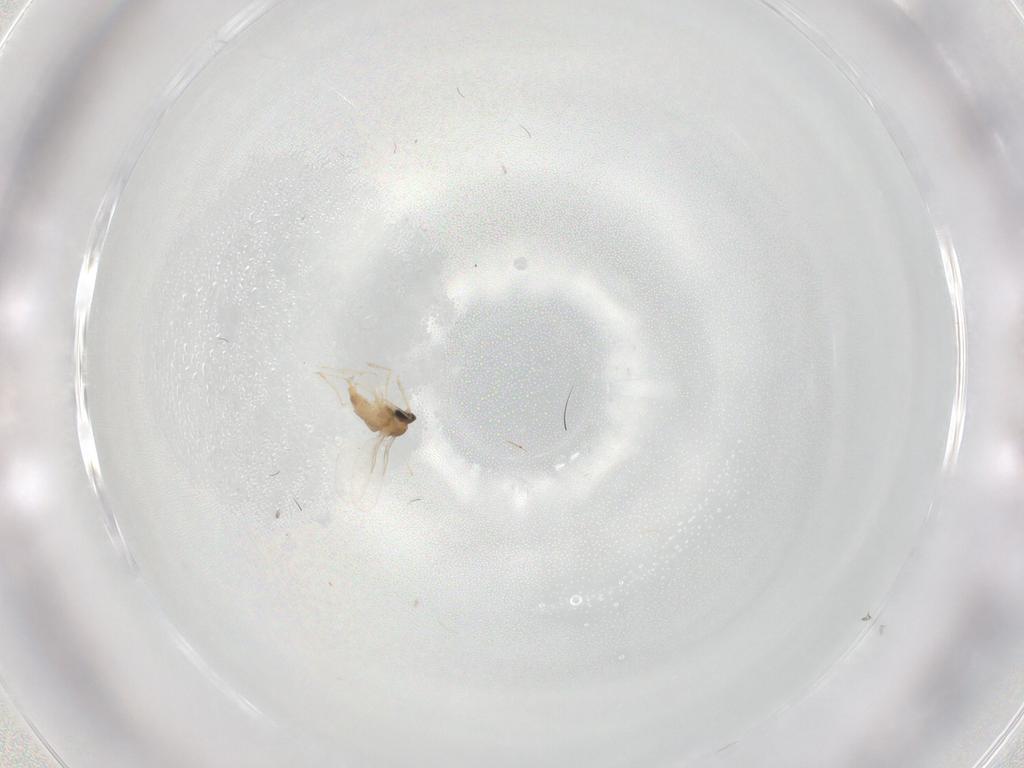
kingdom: Animalia
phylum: Arthropoda
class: Insecta
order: Diptera
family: Cecidomyiidae
